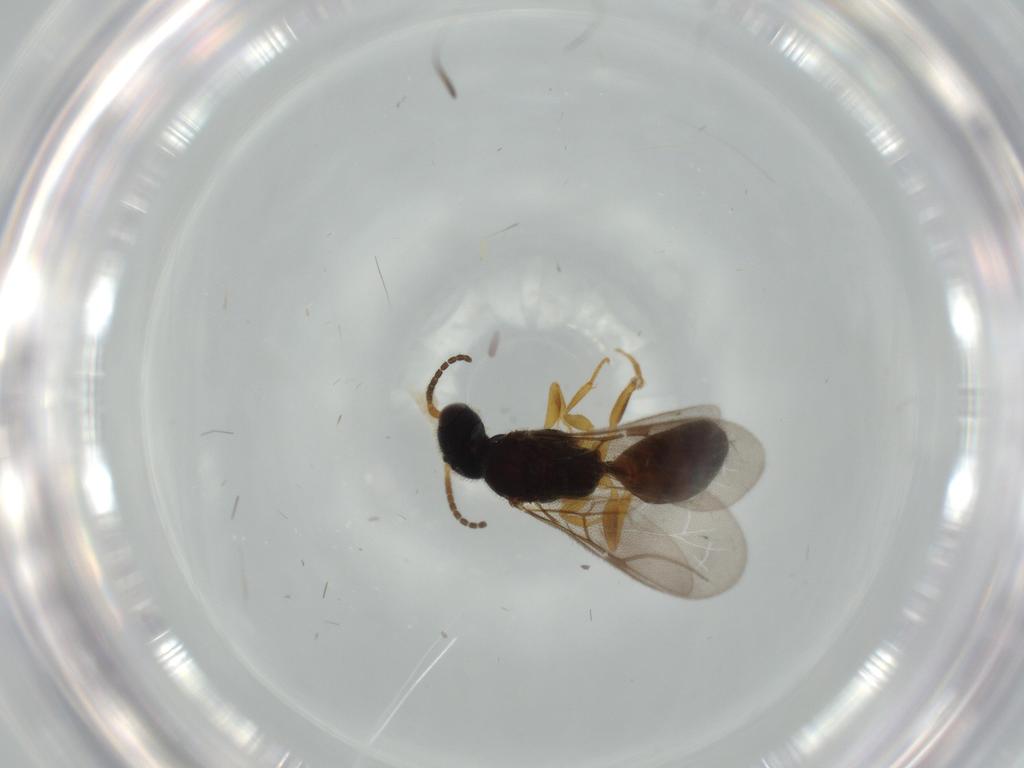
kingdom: Animalia
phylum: Arthropoda
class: Insecta
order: Hymenoptera
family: Bethylidae
